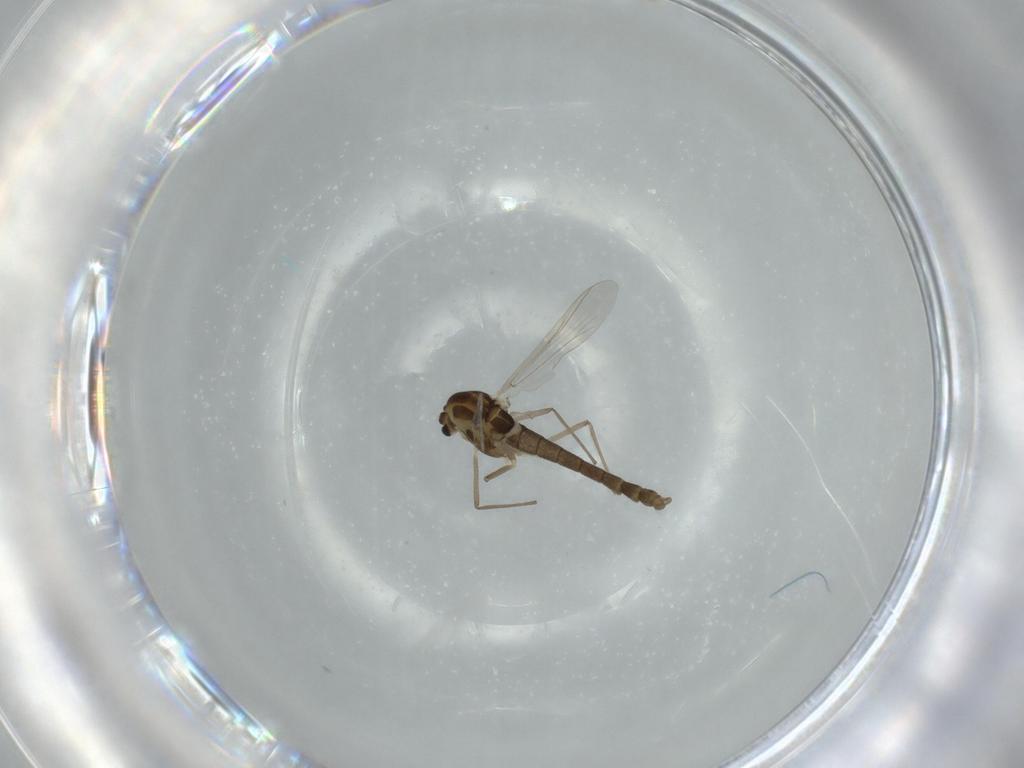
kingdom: Animalia
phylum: Arthropoda
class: Insecta
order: Diptera
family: Chironomidae
